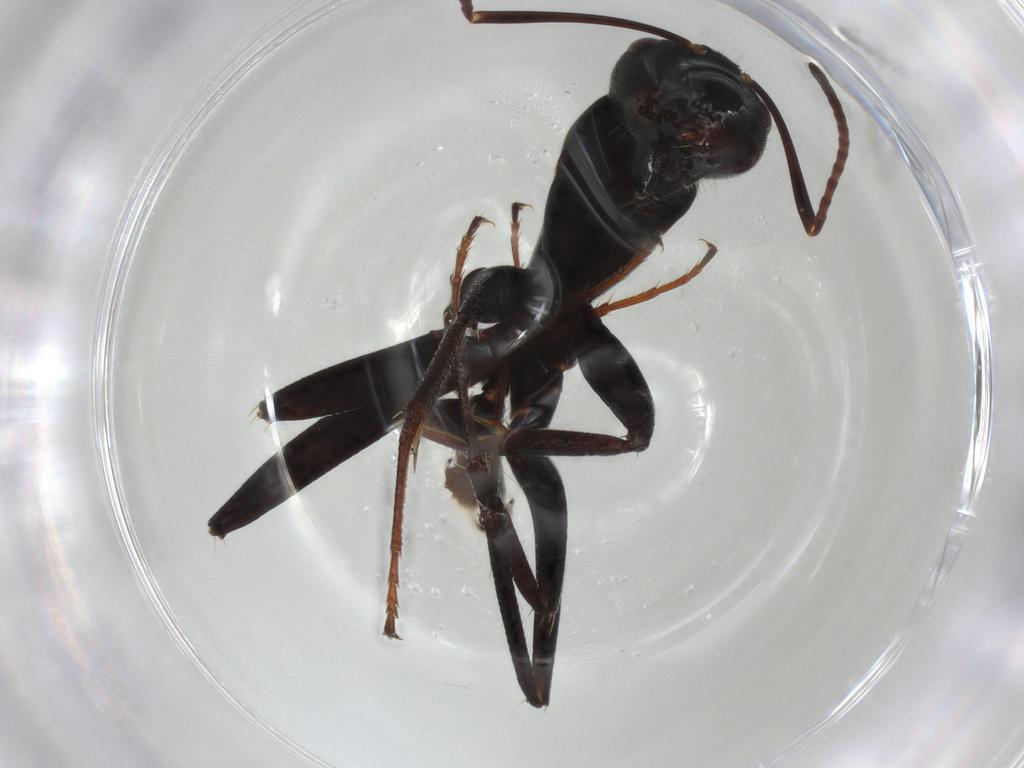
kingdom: Animalia
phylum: Arthropoda
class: Insecta
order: Hymenoptera
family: Formicidae
